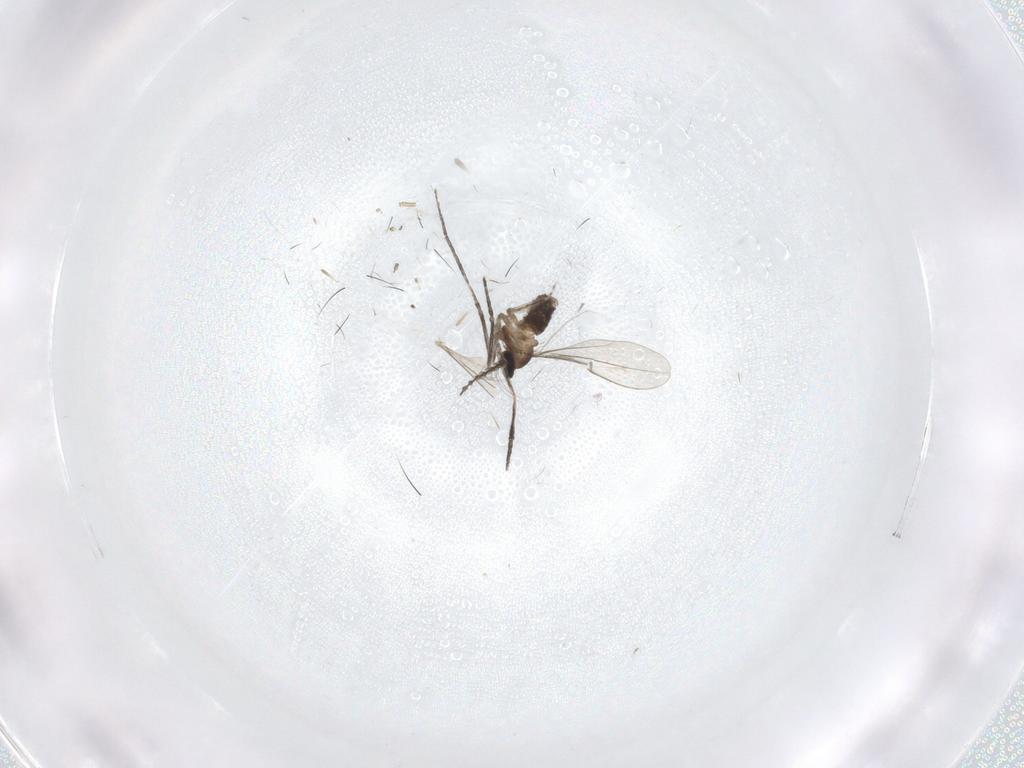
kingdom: Animalia
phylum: Arthropoda
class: Insecta
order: Diptera
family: Cecidomyiidae
